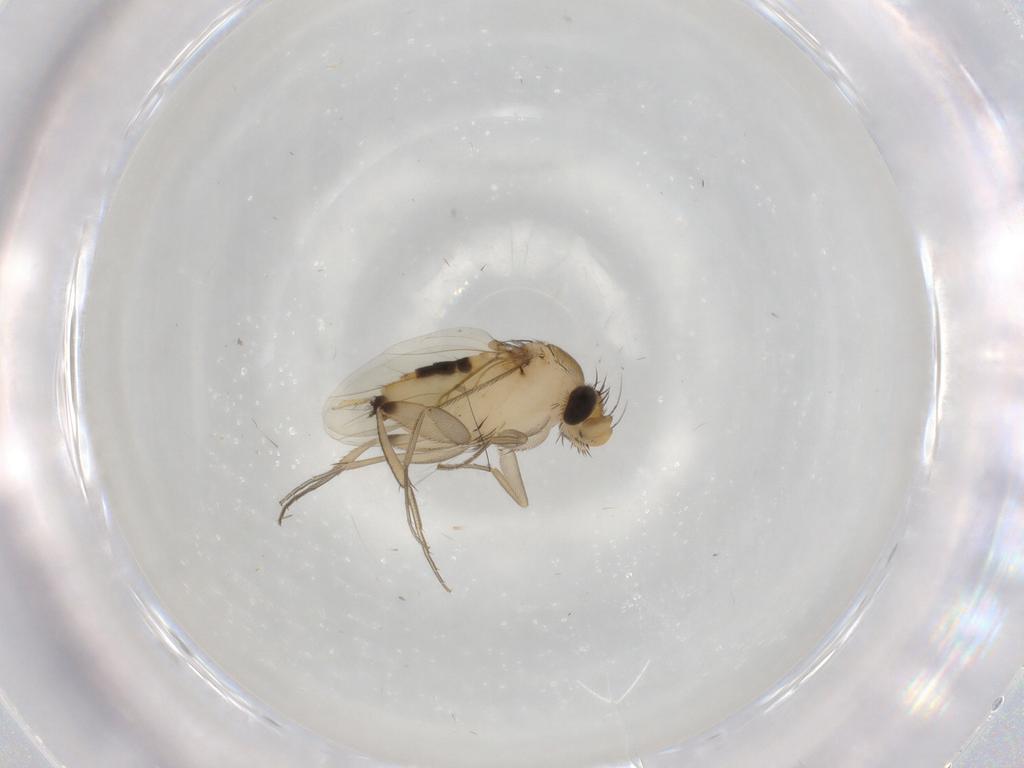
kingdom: Animalia
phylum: Arthropoda
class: Insecta
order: Diptera
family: Phoridae
